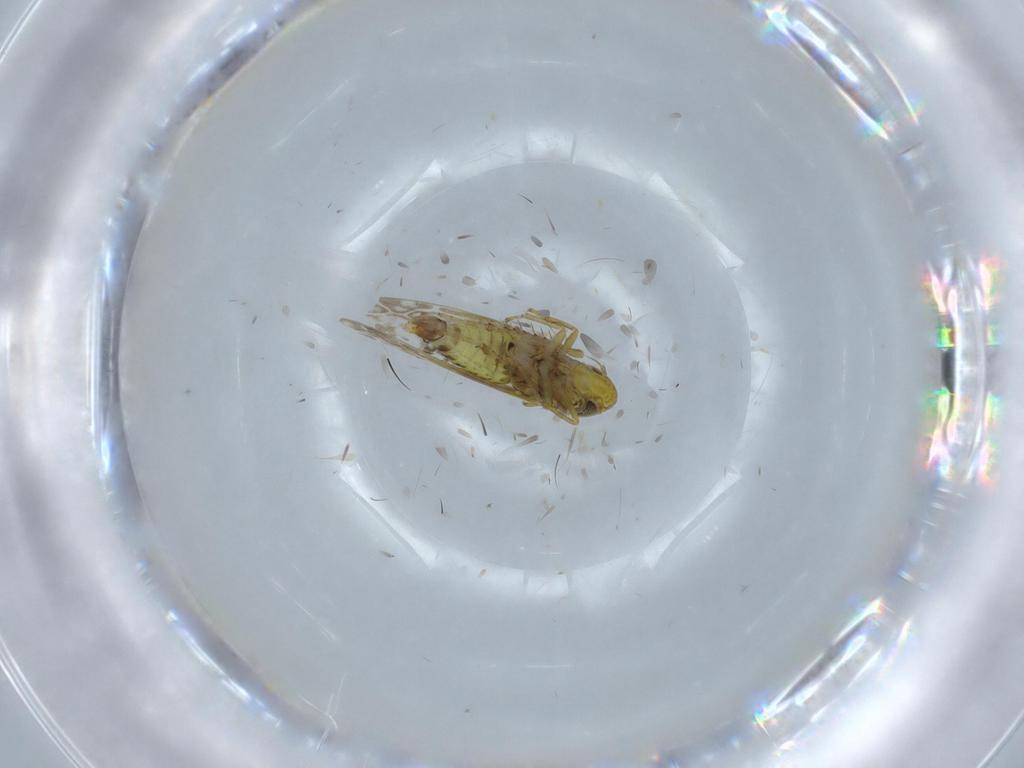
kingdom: Animalia
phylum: Arthropoda
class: Insecta
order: Hemiptera
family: Cicadellidae
